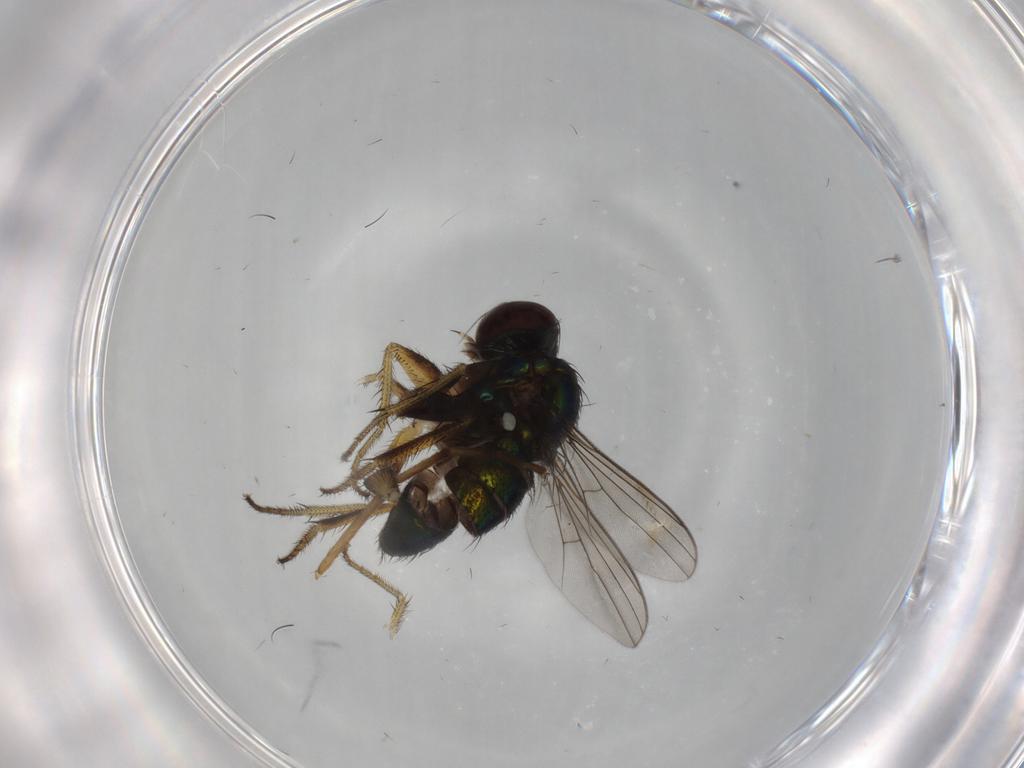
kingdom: Animalia
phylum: Arthropoda
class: Insecta
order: Diptera
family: Dolichopodidae
